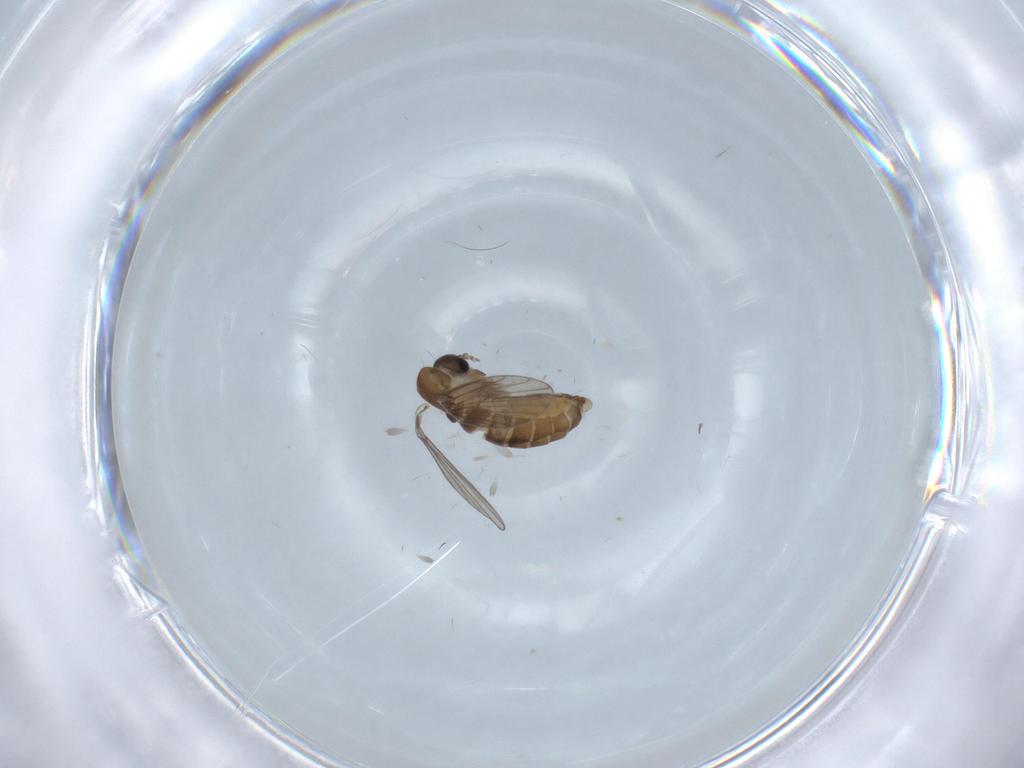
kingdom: Animalia
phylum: Arthropoda
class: Insecta
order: Diptera
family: Psychodidae
